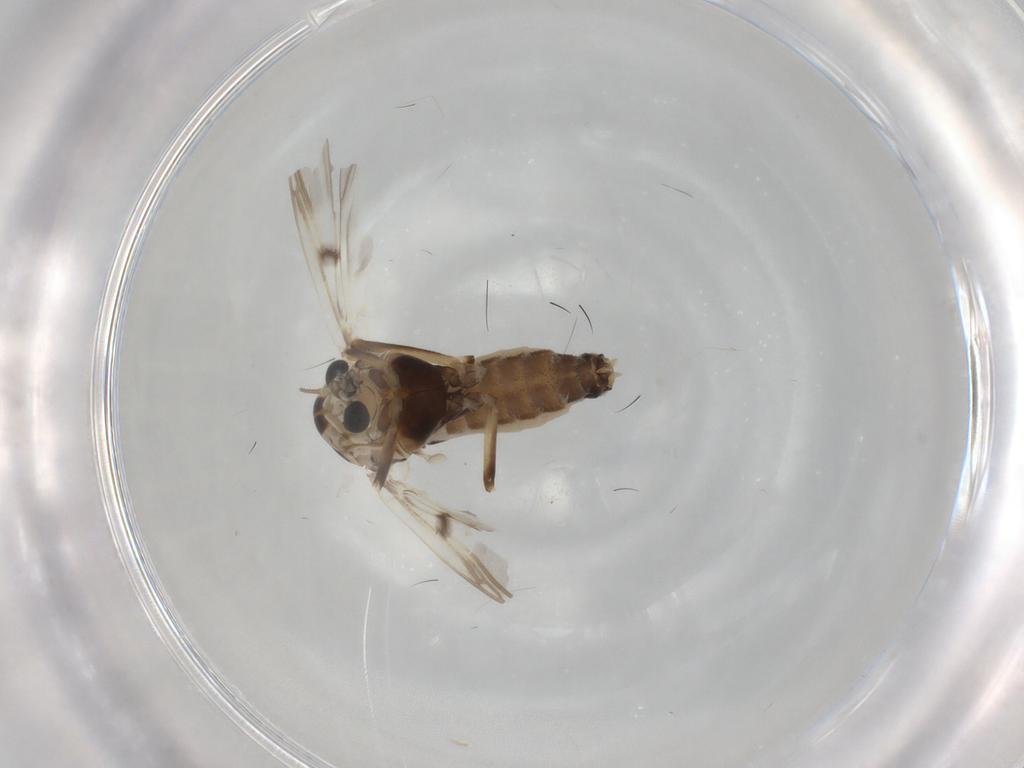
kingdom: Animalia
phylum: Arthropoda
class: Insecta
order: Diptera
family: Chironomidae
